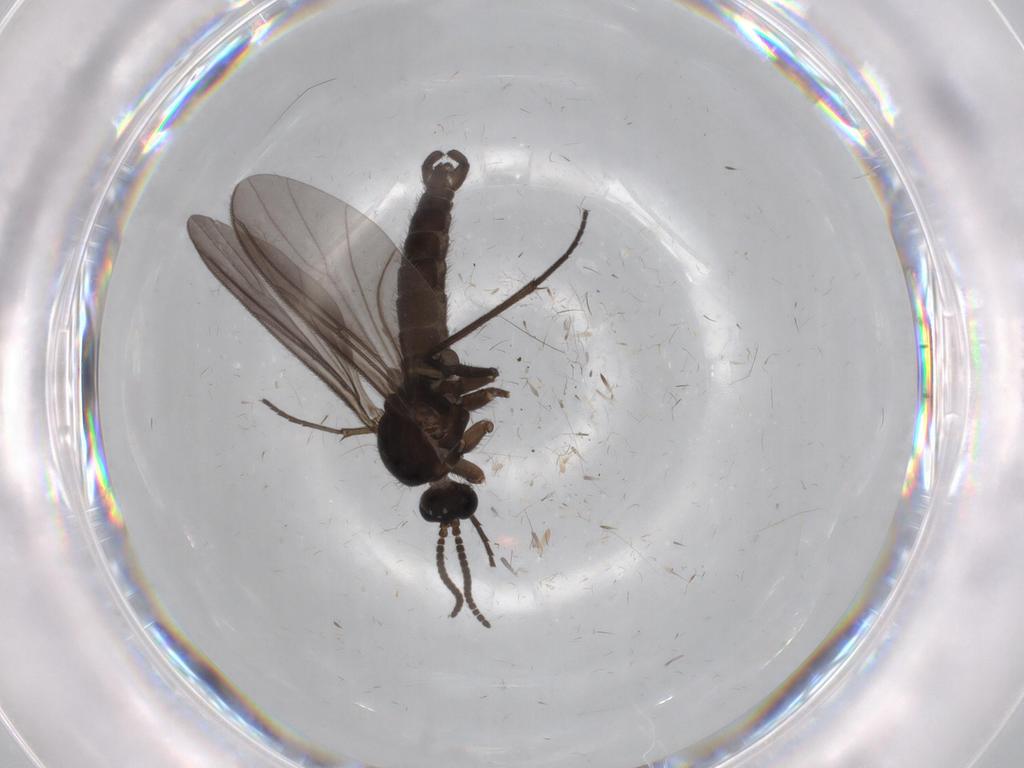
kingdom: Animalia
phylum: Arthropoda
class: Insecta
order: Diptera
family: Sciaridae
